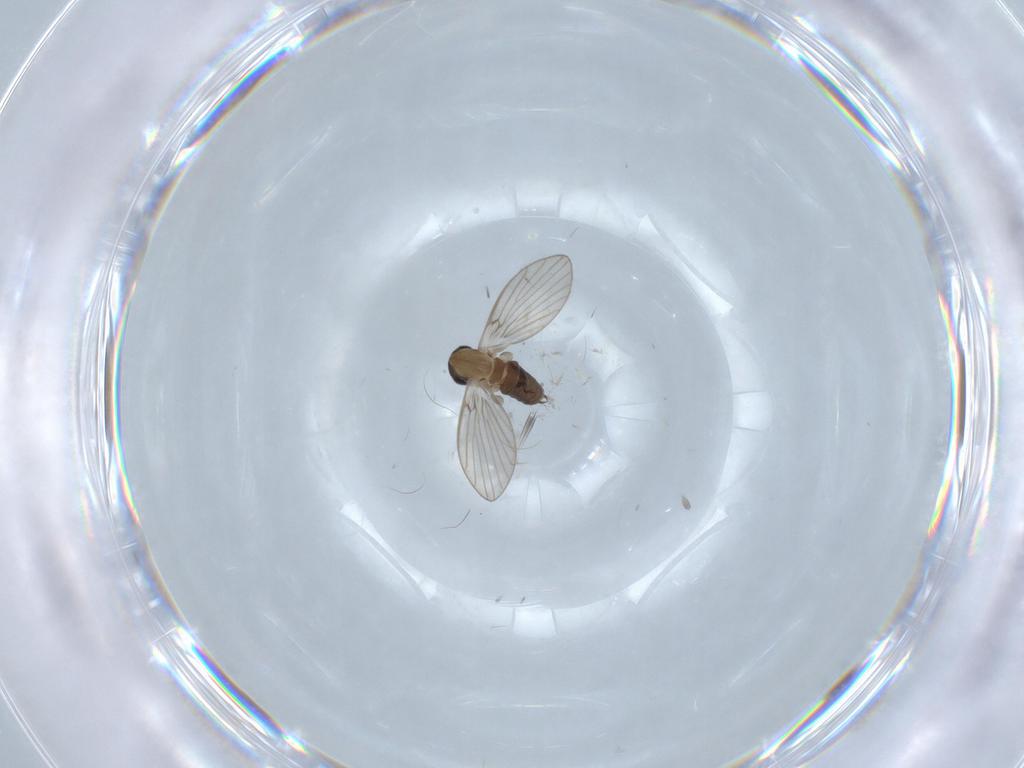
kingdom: Animalia
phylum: Arthropoda
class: Insecta
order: Diptera
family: Psychodidae
